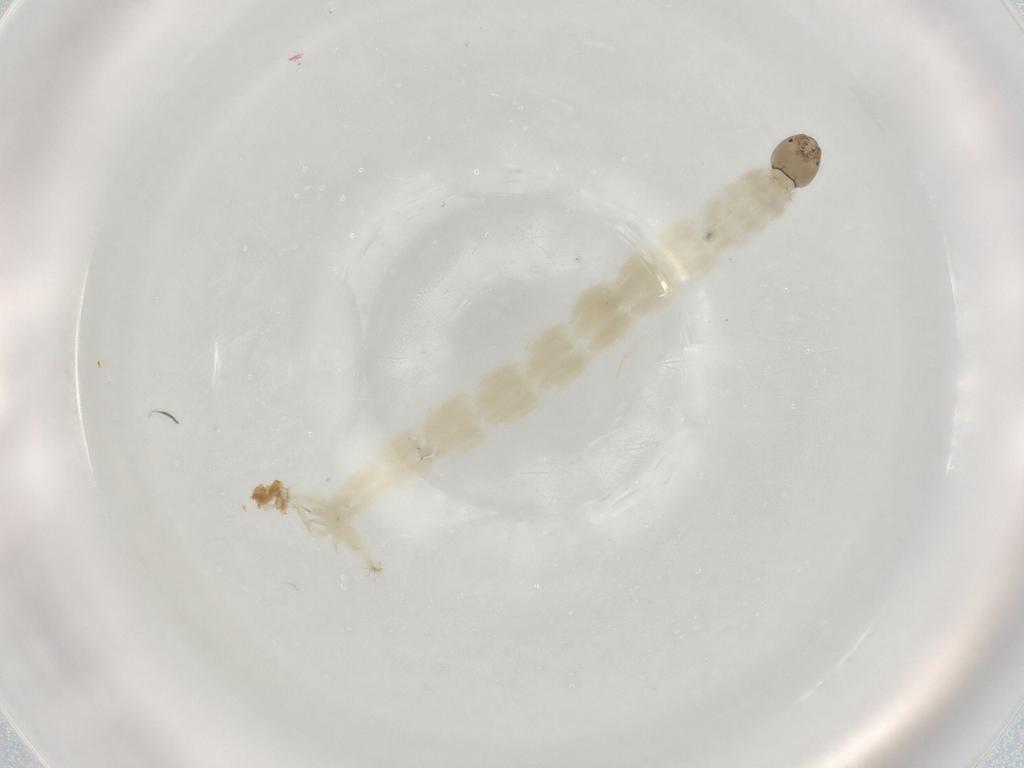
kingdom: Animalia
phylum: Arthropoda
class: Insecta
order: Diptera
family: Chironomidae
